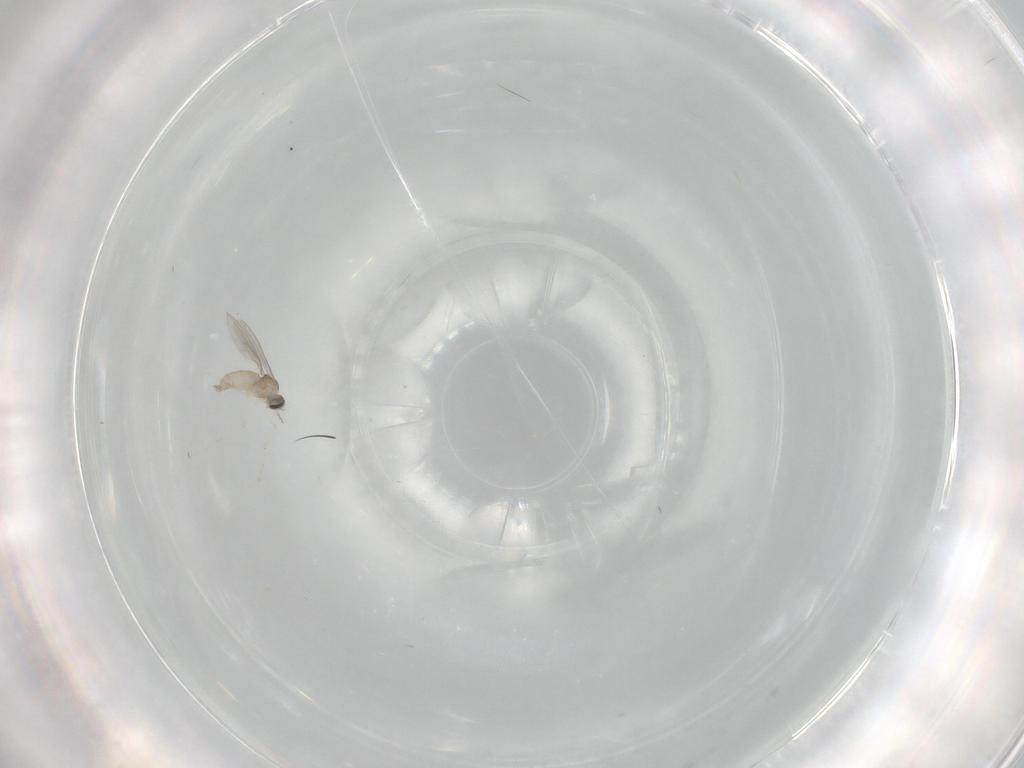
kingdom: Animalia
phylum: Arthropoda
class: Insecta
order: Diptera
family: Cecidomyiidae
